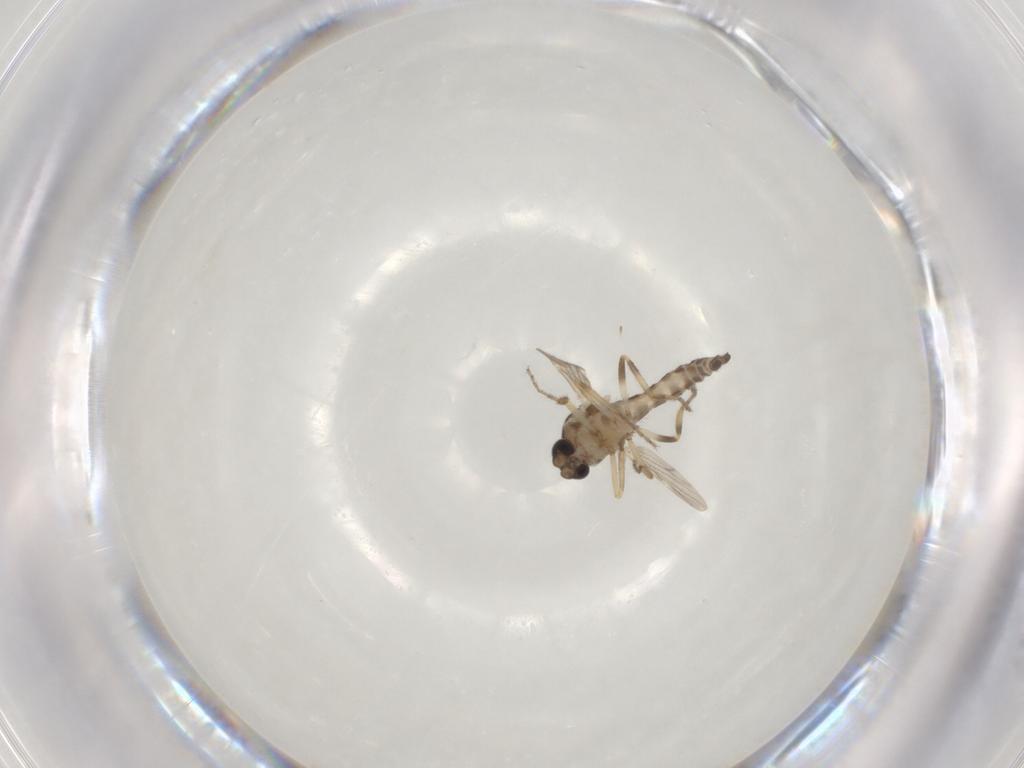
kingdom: Animalia
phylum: Arthropoda
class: Insecta
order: Diptera
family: Ceratopogonidae
